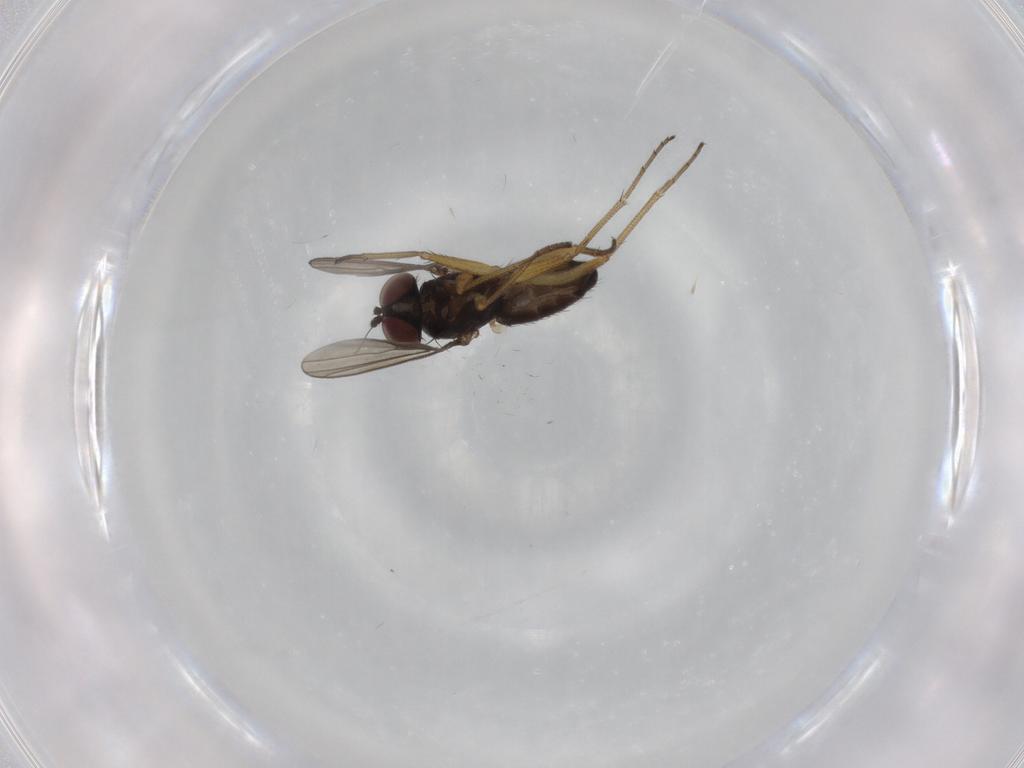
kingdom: Animalia
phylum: Arthropoda
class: Insecta
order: Diptera
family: Dolichopodidae
